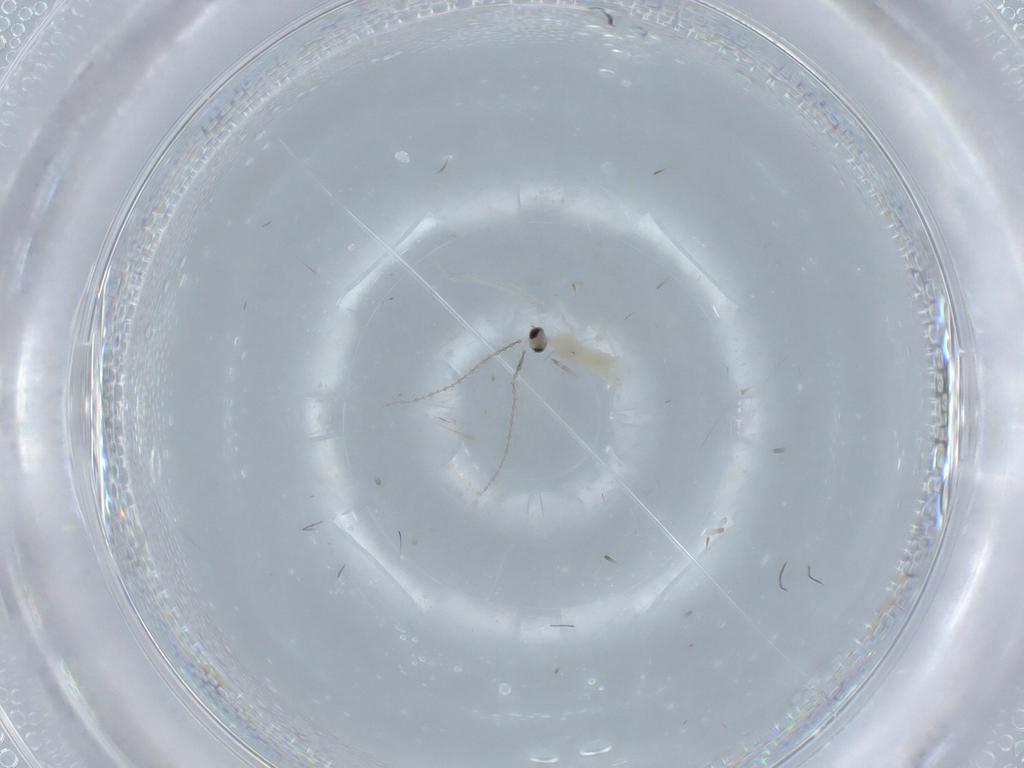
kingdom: Animalia
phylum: Arthropoda
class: Insecta
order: Diptera
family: Cecidomyiidae
